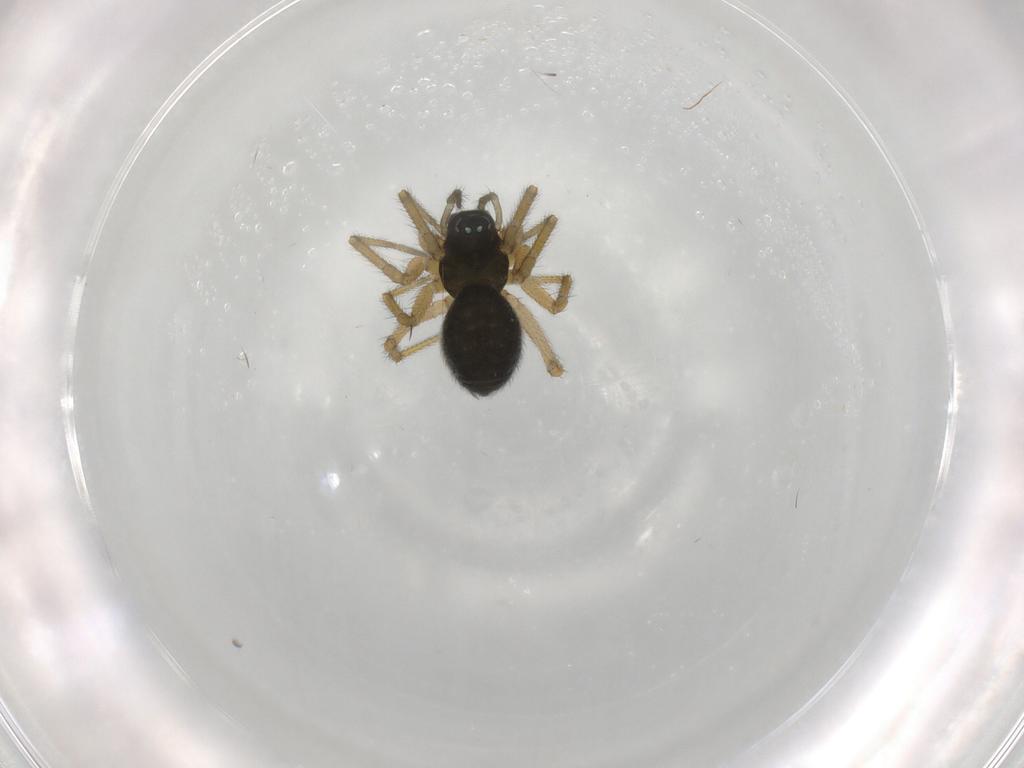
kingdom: Animalia
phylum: Arthropoda
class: Arachnida
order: Araneae
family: Linyphiidae
